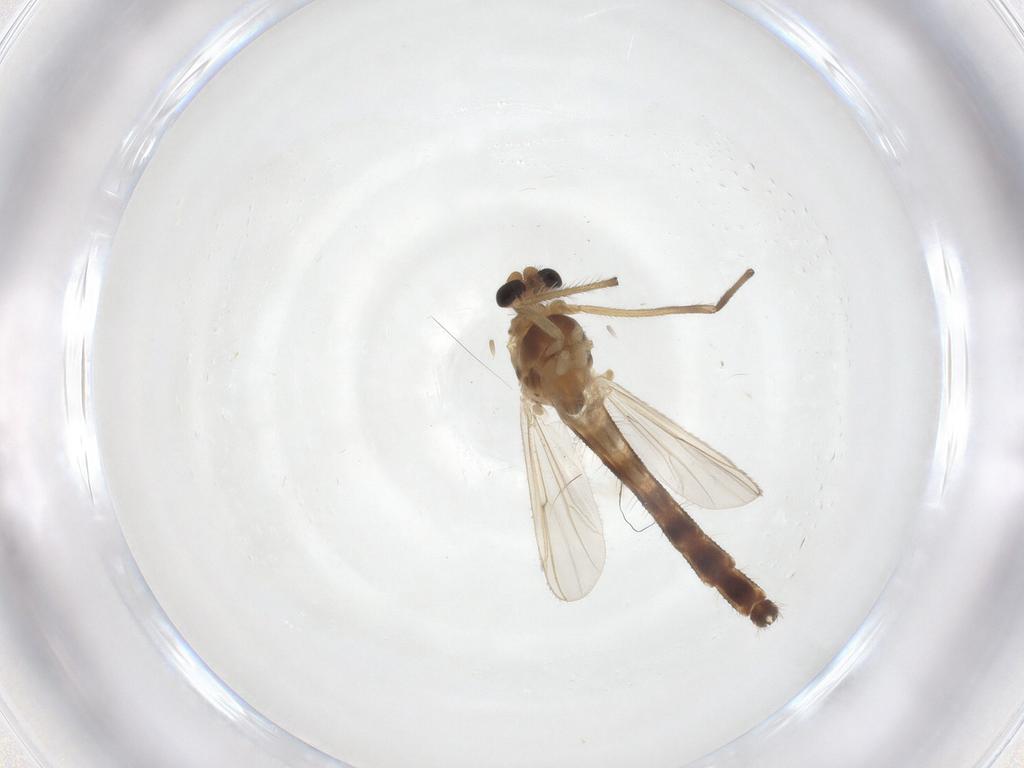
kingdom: Animalia
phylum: Arthropoda
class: Insecta
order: Diptera
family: Chironomidae
